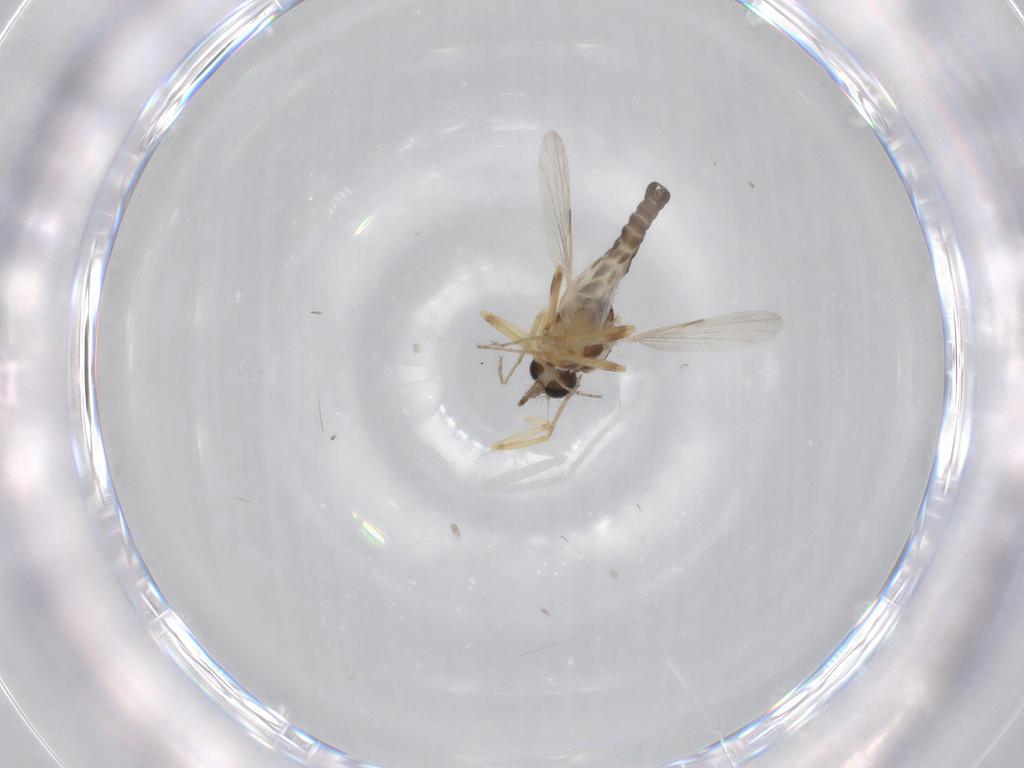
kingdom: Animalia
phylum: Arthropoda
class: Insecta
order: Diptera
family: Ceratopogonidae
